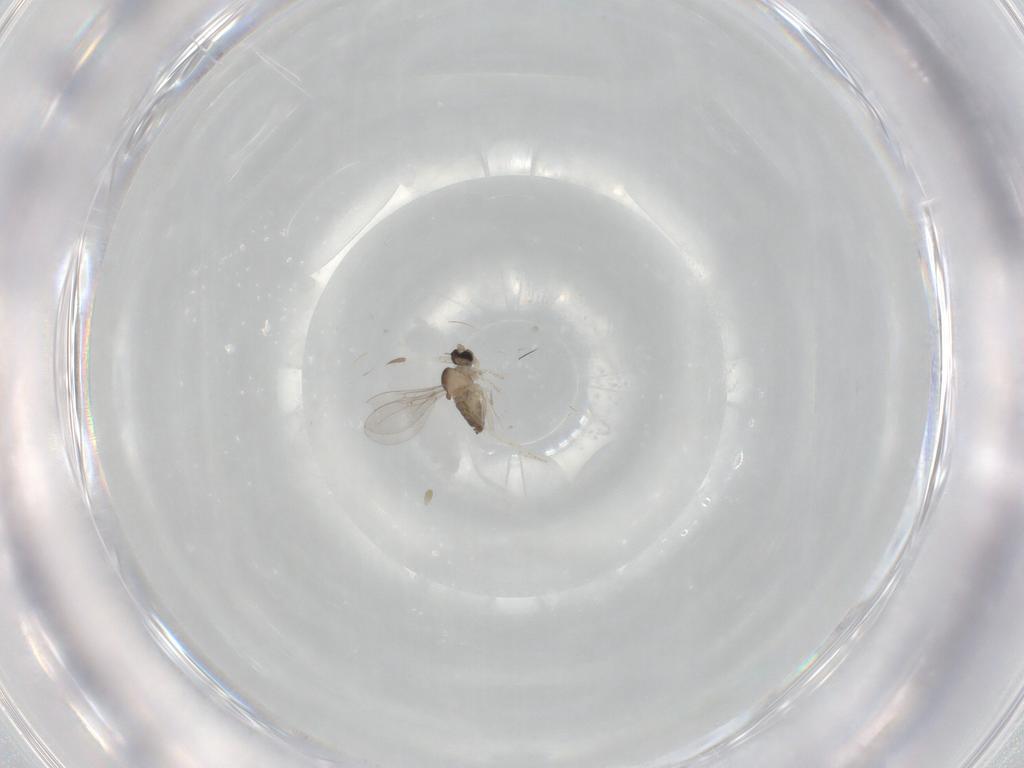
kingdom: Animalia
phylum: Arthropoda
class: Insecta
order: Diptera
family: Cecidomyiidae
